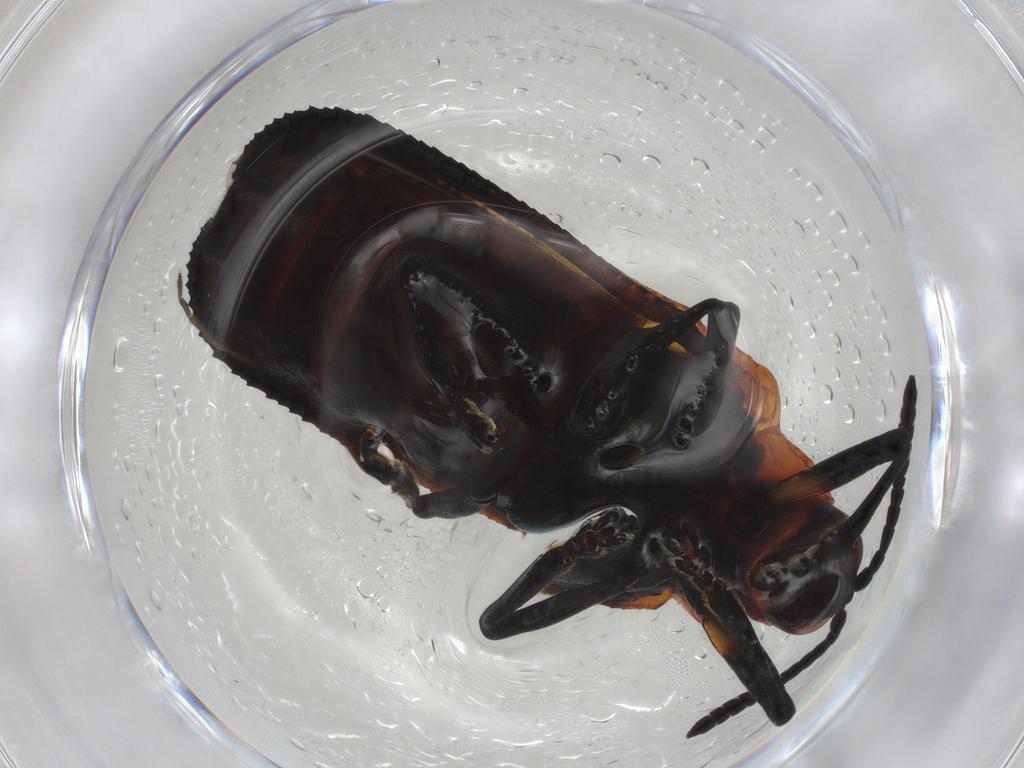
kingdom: Animalia
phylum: Arthropoda
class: Insecta
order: Coleoptera
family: Chrysomelidae
